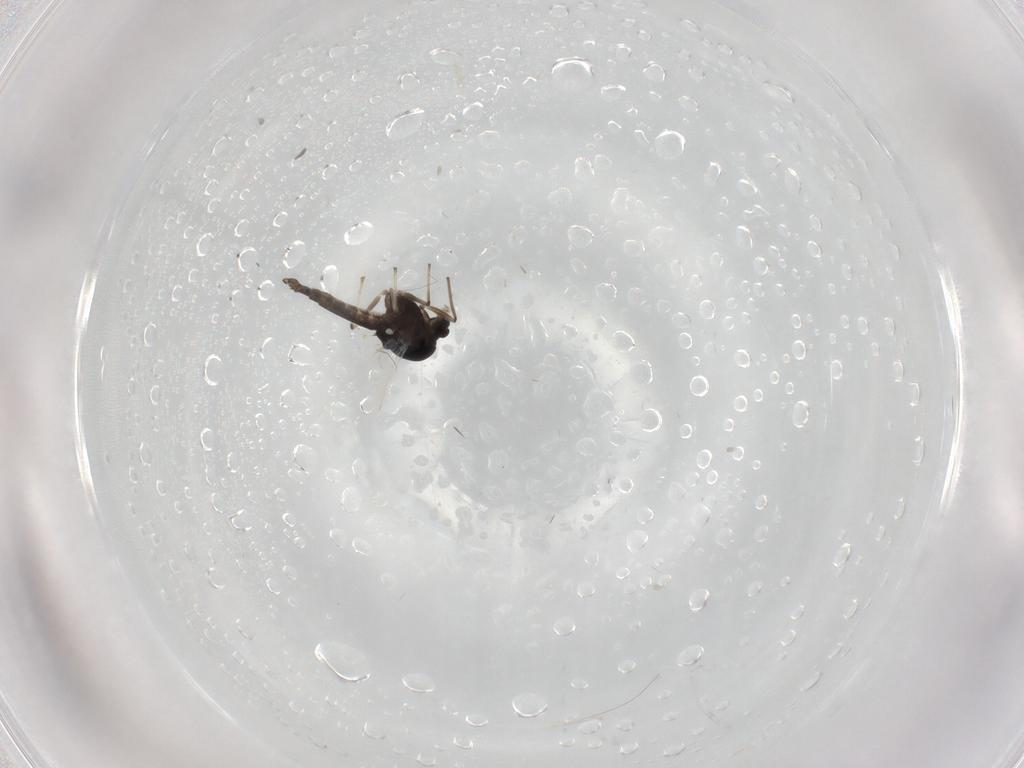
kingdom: Animalia
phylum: Arthropoda
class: Insecta
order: Diptera
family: Chironomidae
